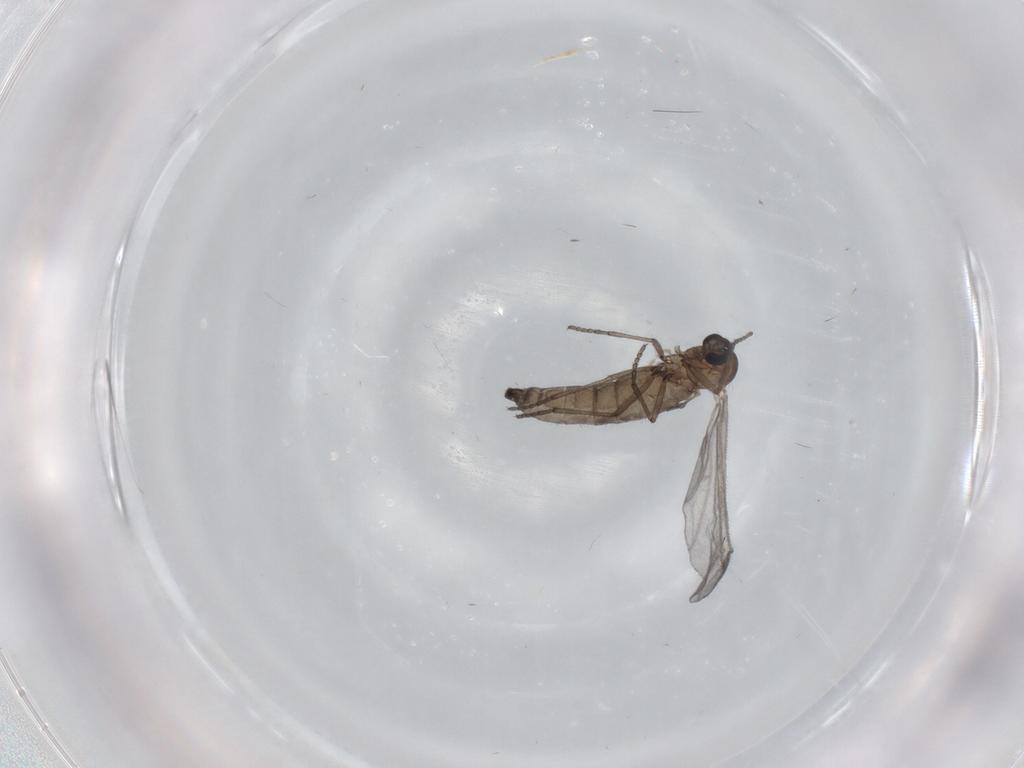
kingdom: Animalia
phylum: Arthropoda
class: Insecta
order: Diptera
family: Sciaridae
